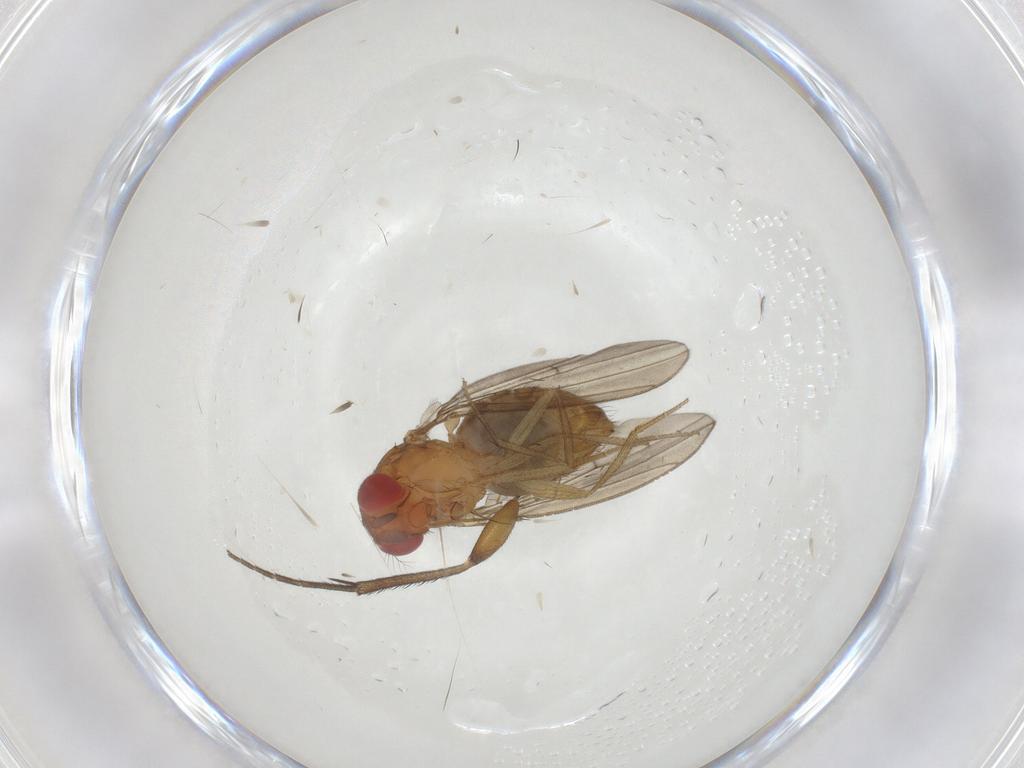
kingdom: Animalia
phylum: Arthropoda
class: Insecta
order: Diptera
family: Drosophilidae
